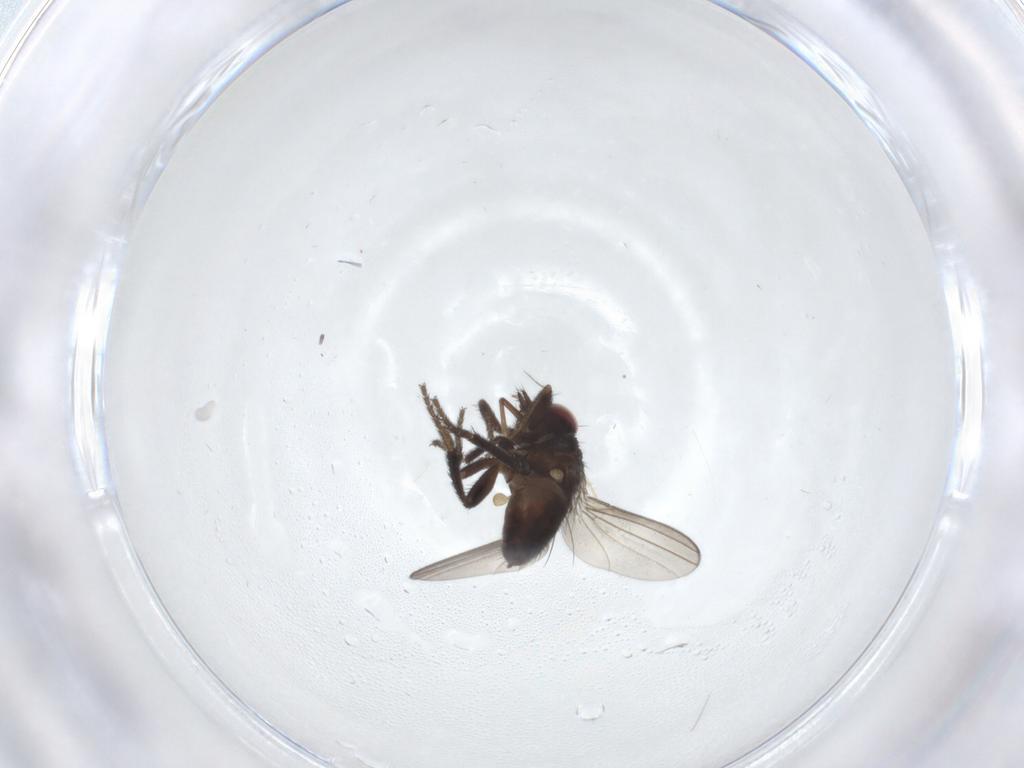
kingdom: Animalia
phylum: Arthropoda
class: Insecta
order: Diptera
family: Milichiidae
